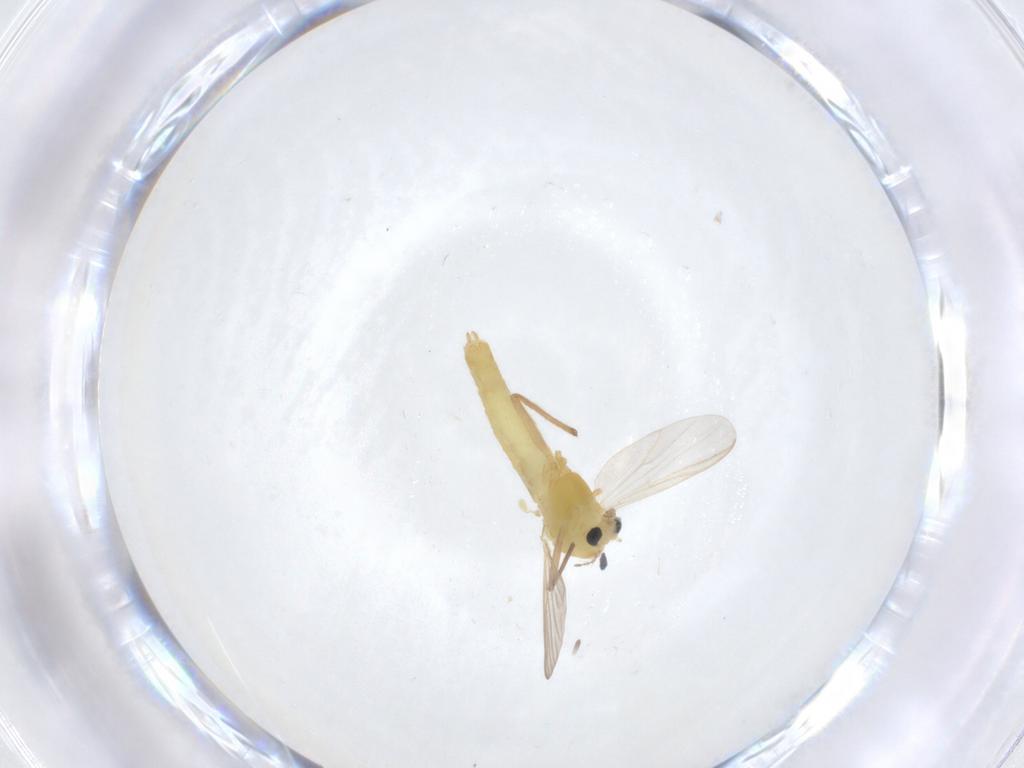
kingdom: Animalia
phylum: Arthropoda
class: Insecta
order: Diptera
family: Chironomidae
